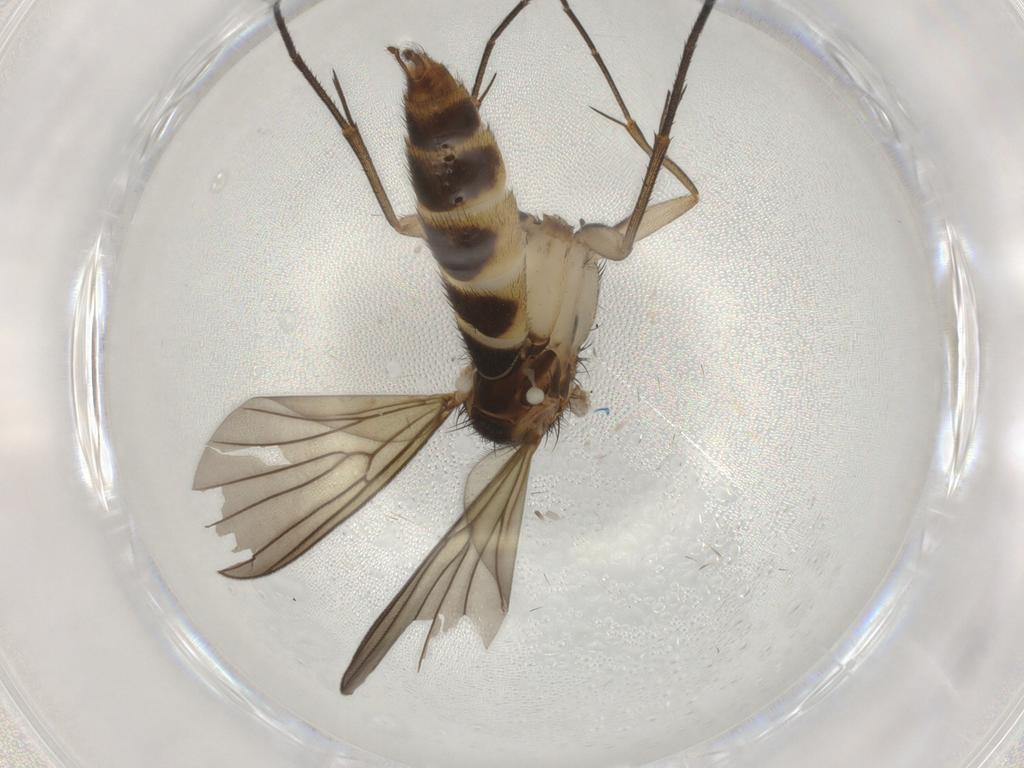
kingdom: Animalia
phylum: Arthropoda
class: Insecta
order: Diptera
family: Mycetophilidae
